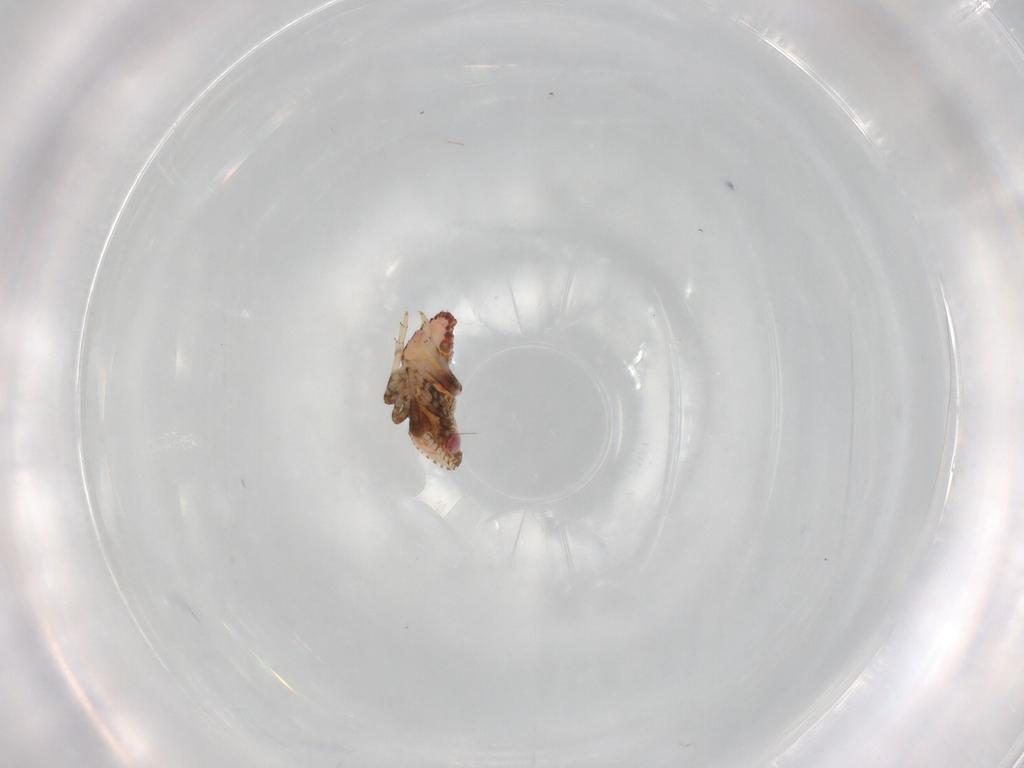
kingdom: Animalia
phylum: Arthropoda
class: Insecta
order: Hemiptera
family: Tropiduchidae
